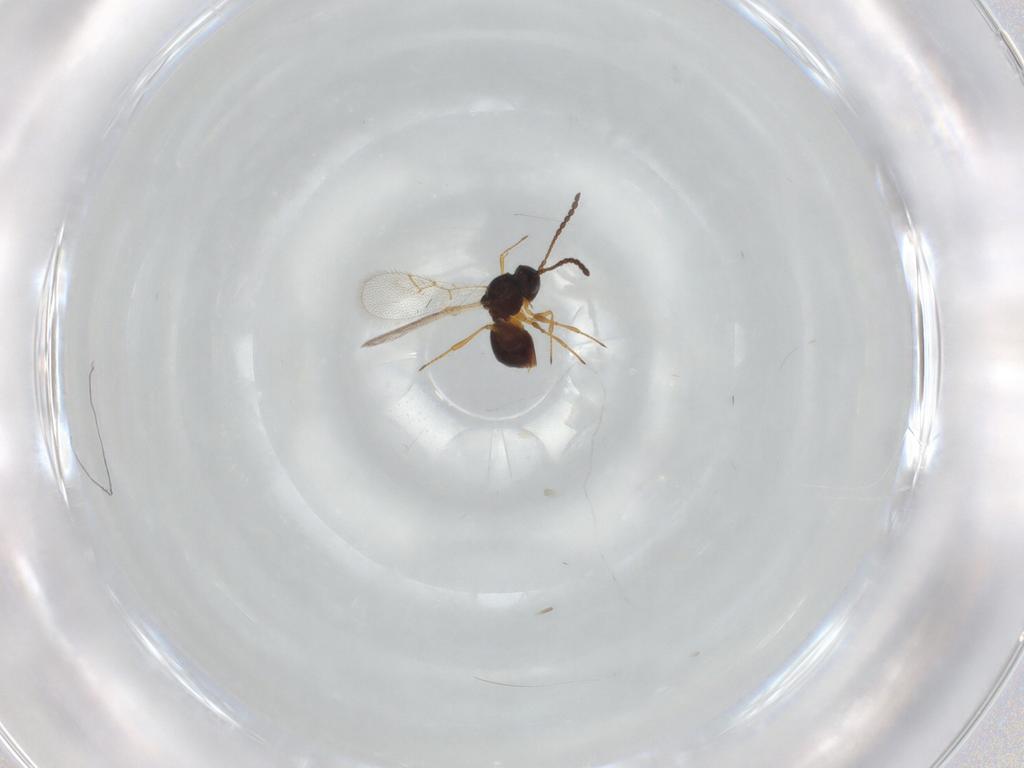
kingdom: Animalia
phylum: Arthropoda
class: Insecta
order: Hymenoptera
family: Figitidae
